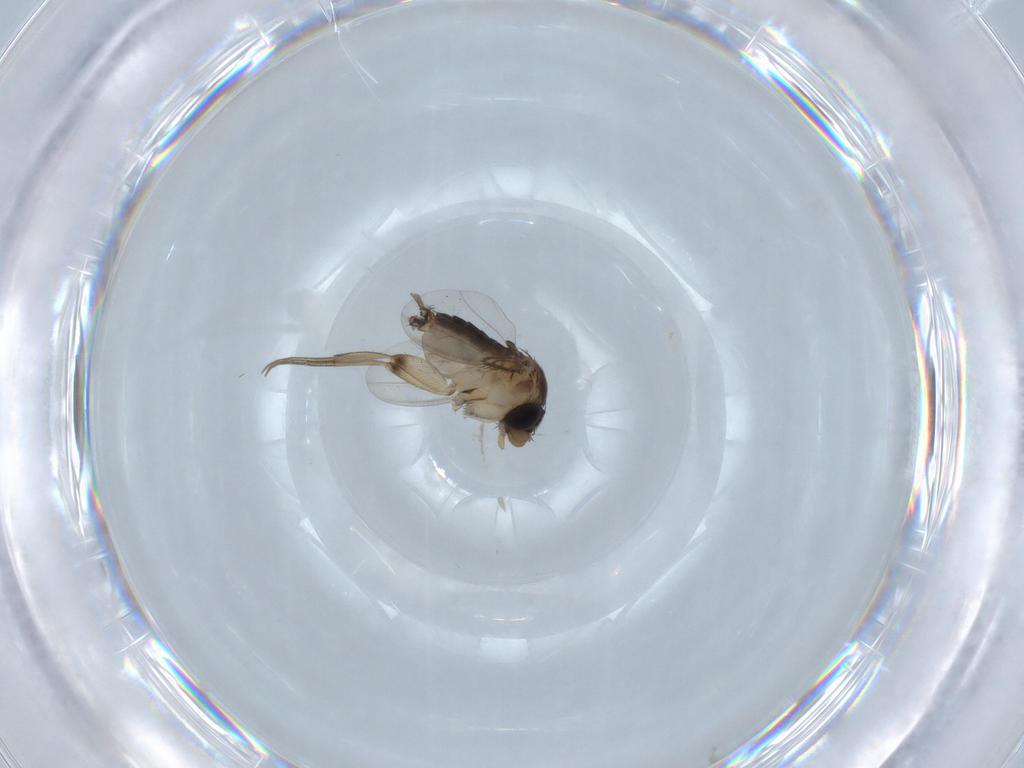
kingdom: Animalia
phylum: Arthropoda
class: Insecta
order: Diptera
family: Phoridae
